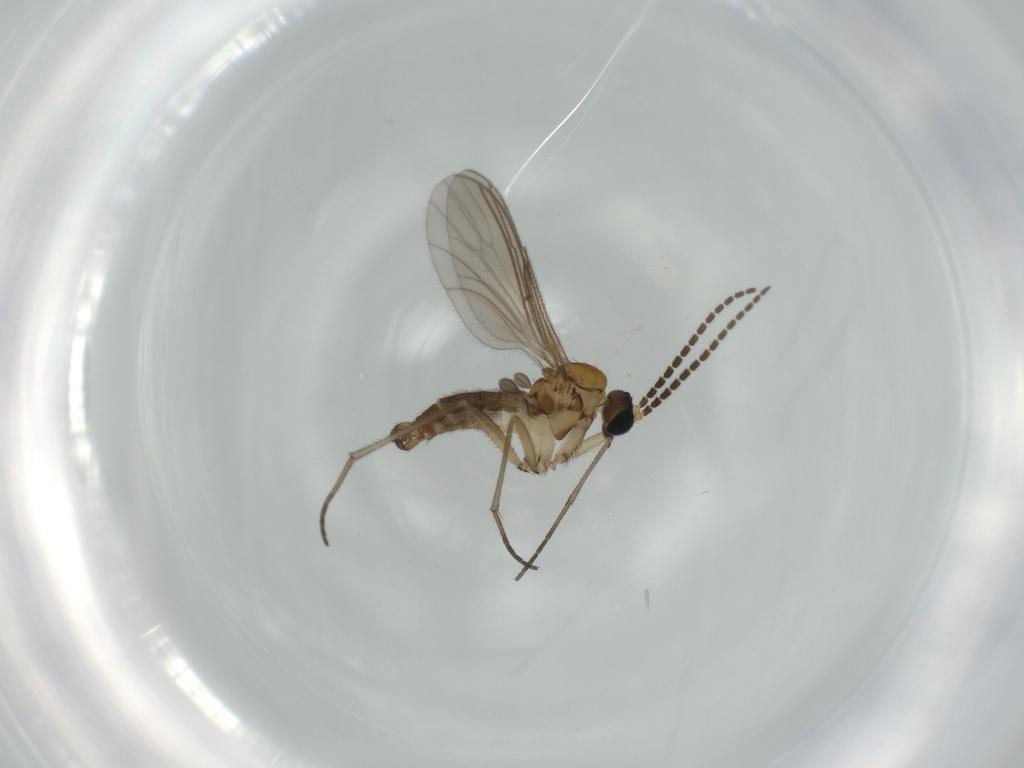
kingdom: Animalia
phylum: Arthropoda
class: Insecta
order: Diptera
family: Sciaridae
